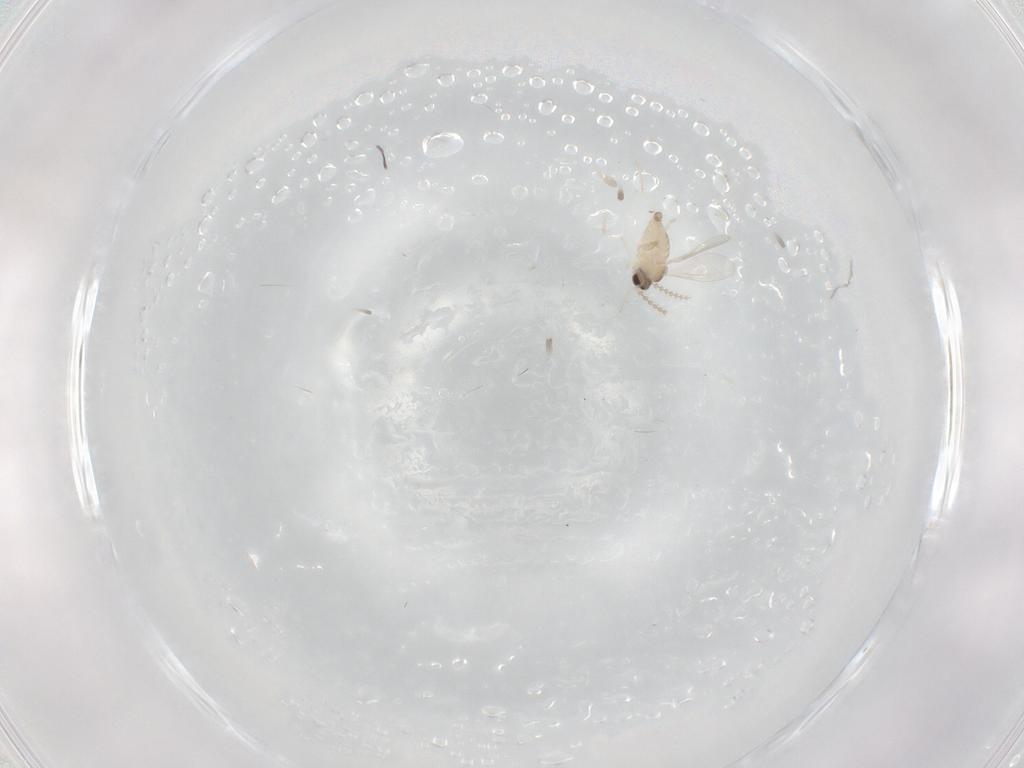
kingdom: Animalia
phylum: Arthropoda
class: Insecta
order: Diptera
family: Cecidomyiidae
